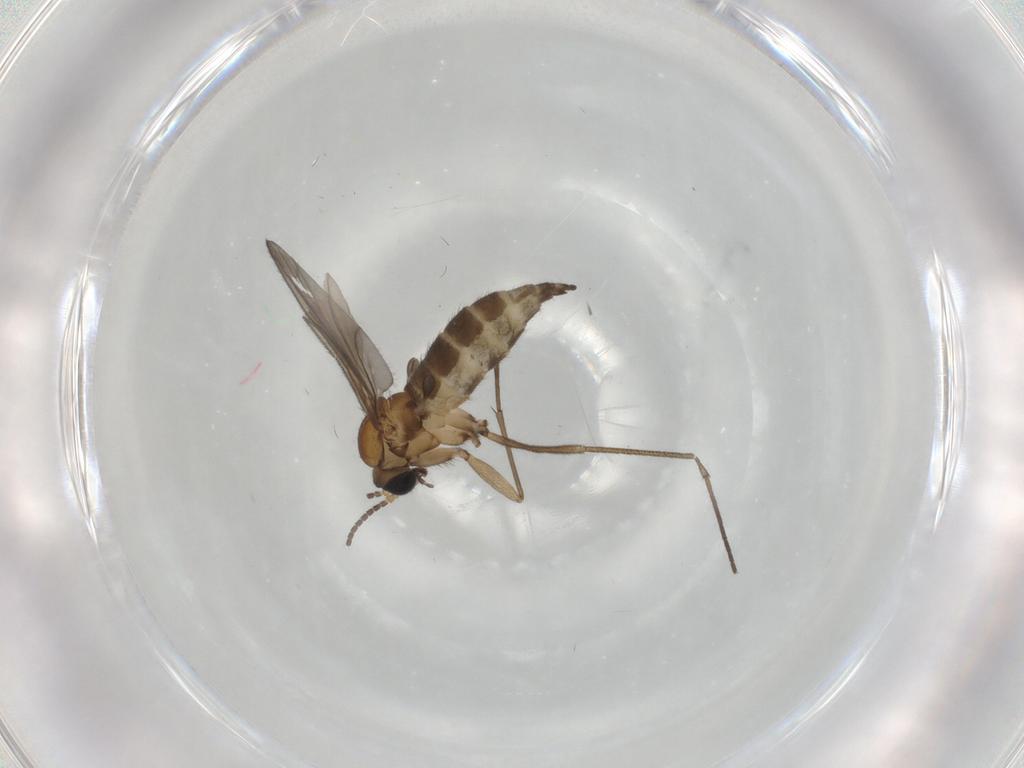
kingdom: Animalia
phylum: Arthropoda
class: Insecta
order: Diptera
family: Sciaridae
